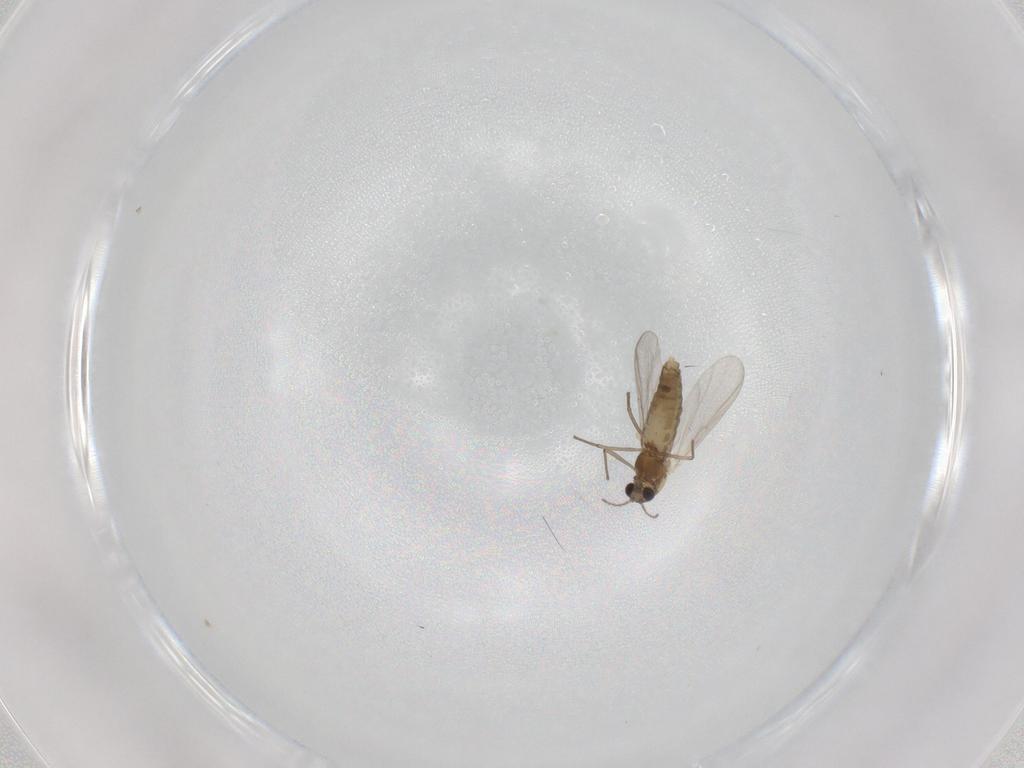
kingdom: Animalia
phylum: Arthropoda
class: Insecta
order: Diptera
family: Chironomidae
